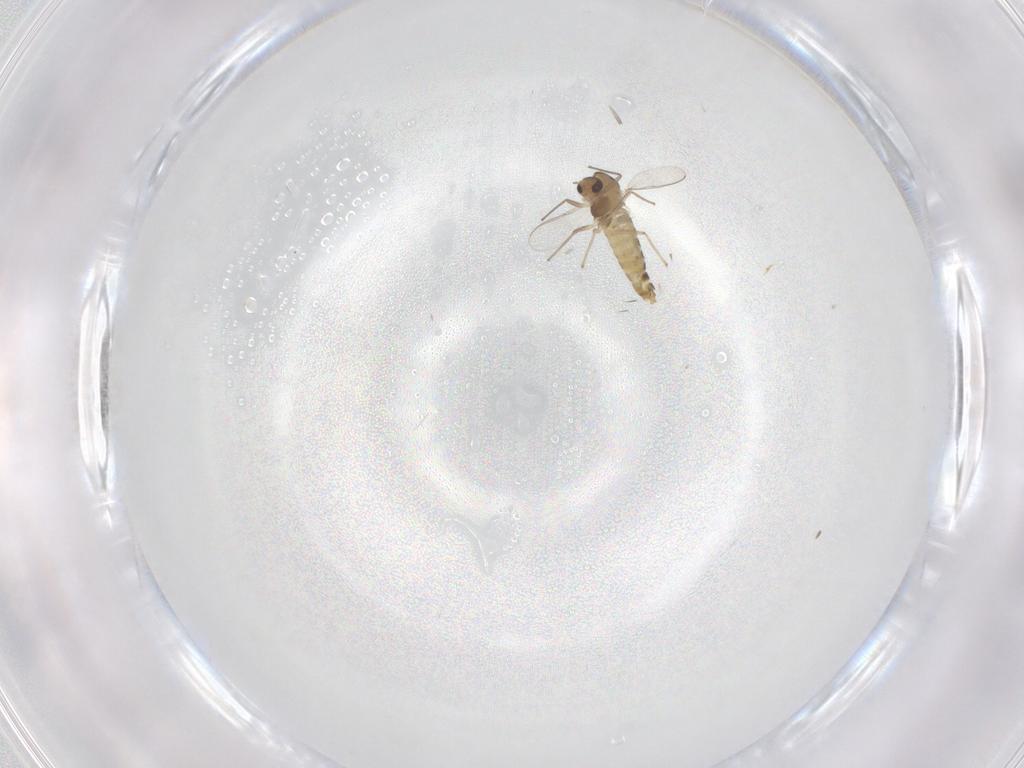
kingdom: Animalia
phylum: Arthropoda
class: Insecta
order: Diptera
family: Chironomidae
